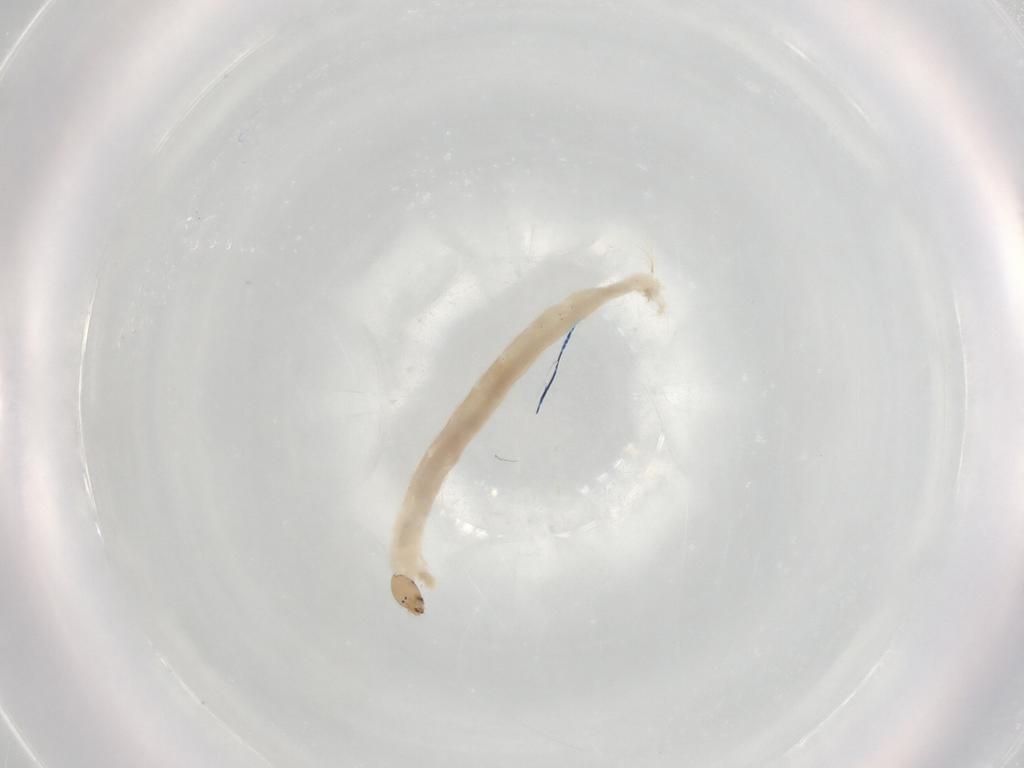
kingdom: Animalia
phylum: Arthropoda
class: Insecta
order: Diptera
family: Chironomidae
